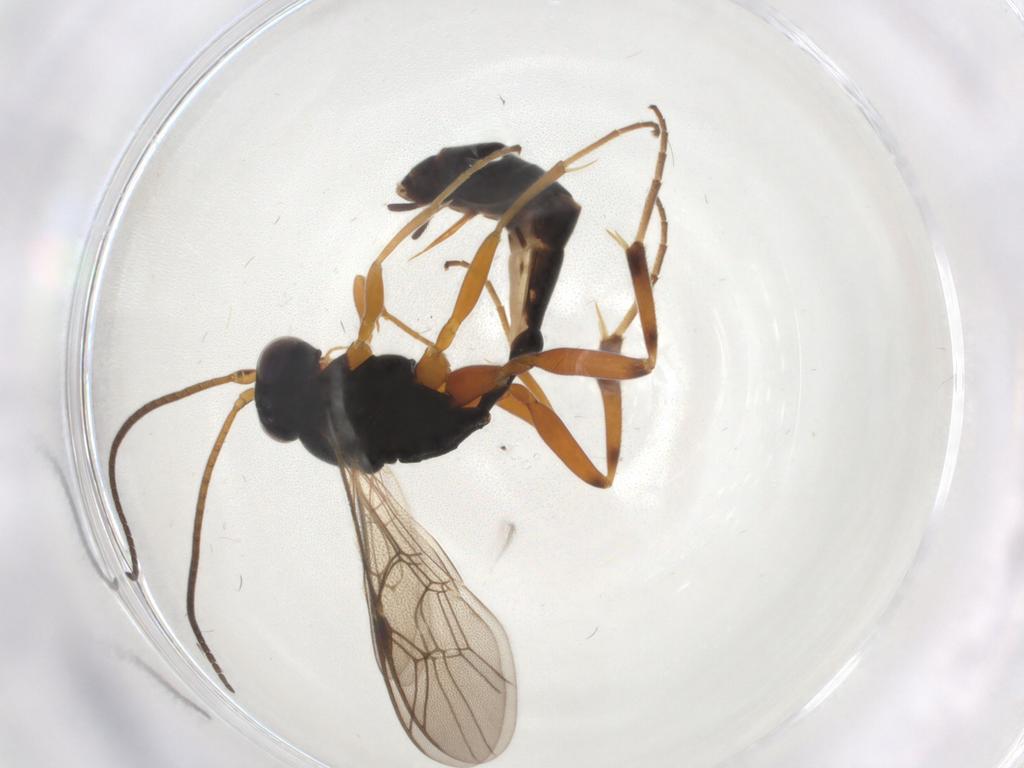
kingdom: Animalia
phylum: Arthropoda
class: Insecta
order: Hymenoptera
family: Ichneumonidae
